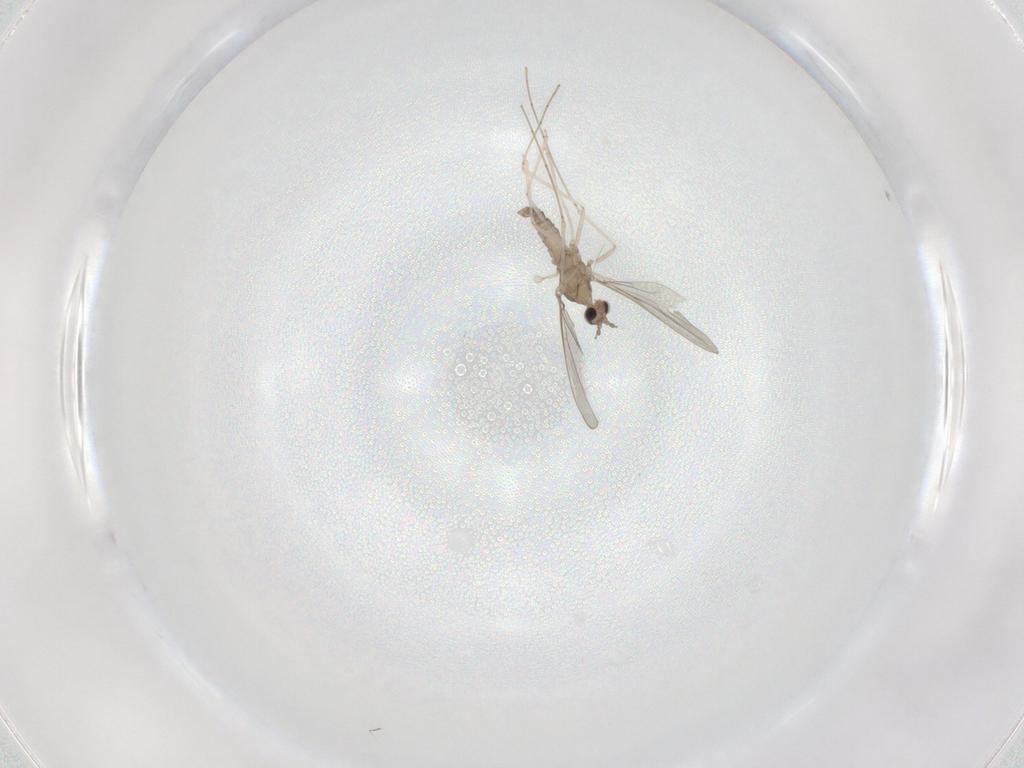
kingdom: Animalia
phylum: Arthropoda
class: Insecta
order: Diptera
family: Cecidomyiidae
